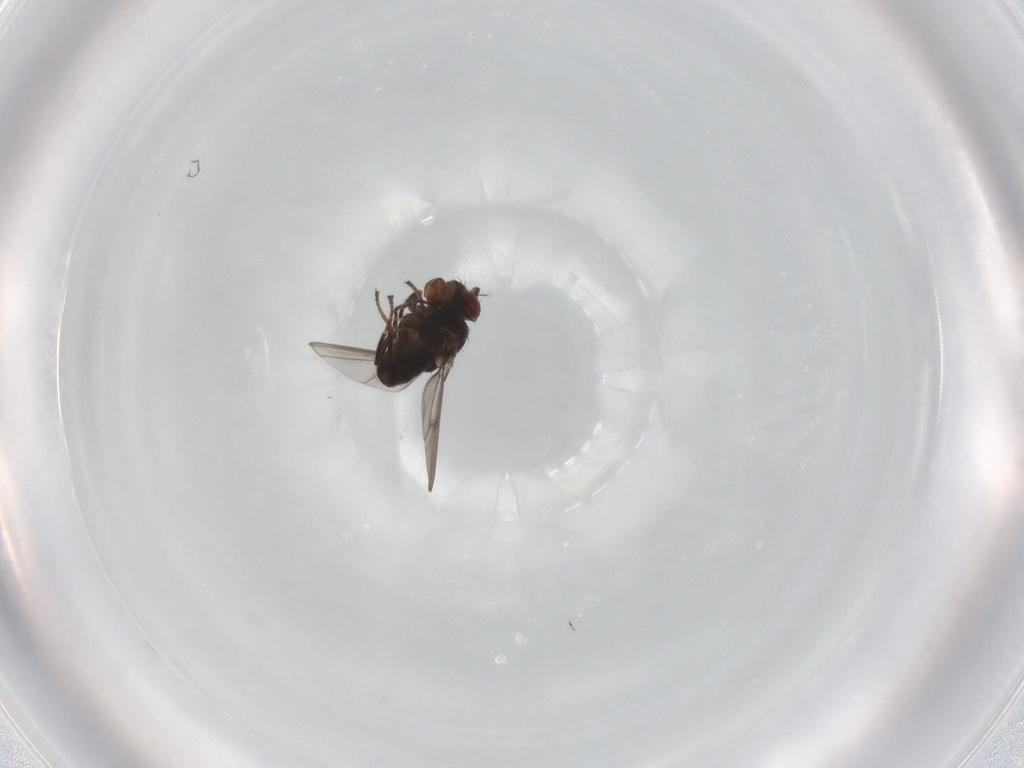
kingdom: Animalia
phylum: Arthropoda
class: Insecta
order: Diptera
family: Ephydridae
